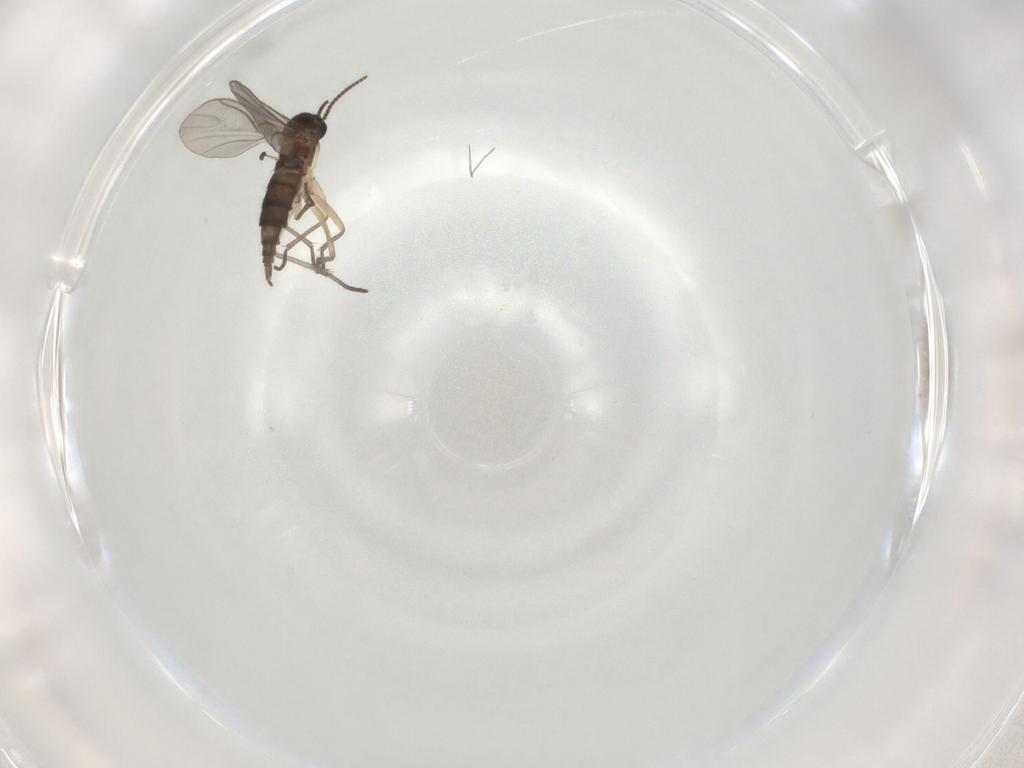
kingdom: Animalia
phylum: Arthropoda
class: Insecta
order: Diptera
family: Sciaridae
